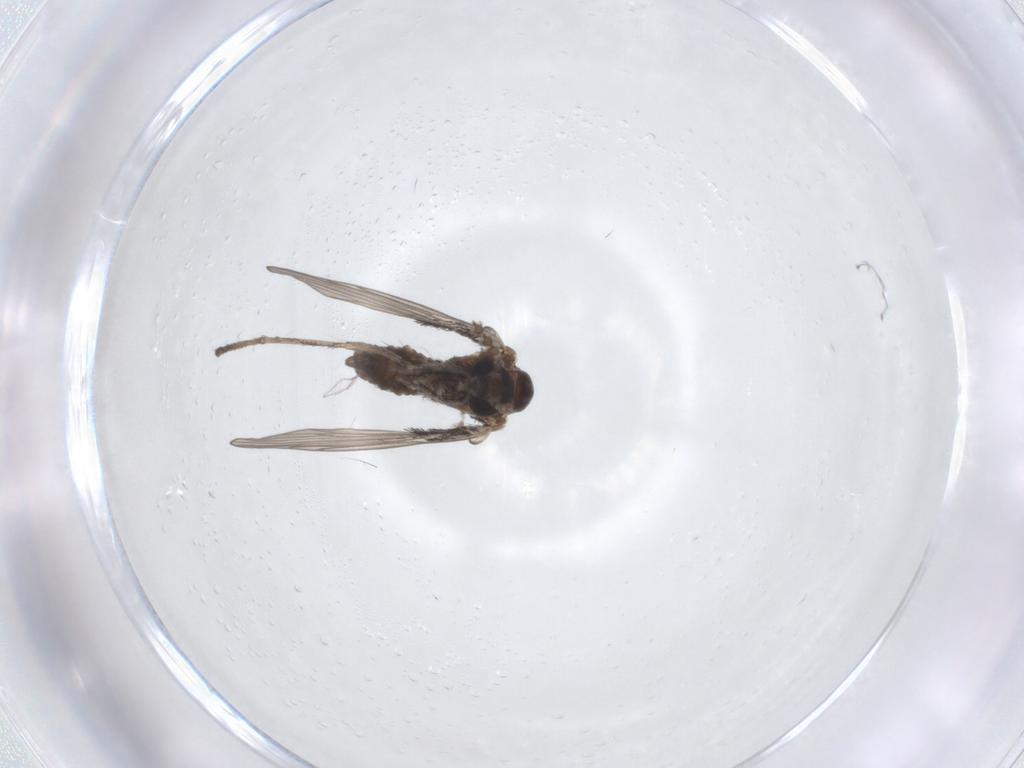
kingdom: Animalia
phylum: Arthropoda
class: Insecta
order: Diptera
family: Psychodidae
